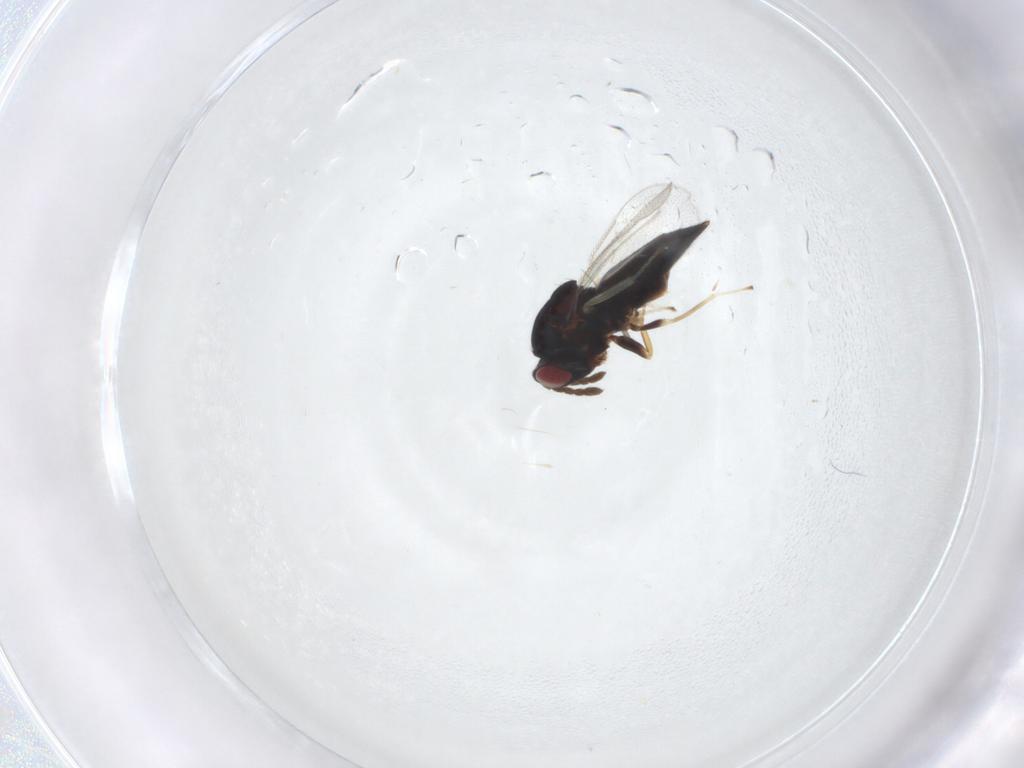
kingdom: Animalia
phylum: Arthropoda
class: Insecta
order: Hymenoptera
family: Eulophidae
